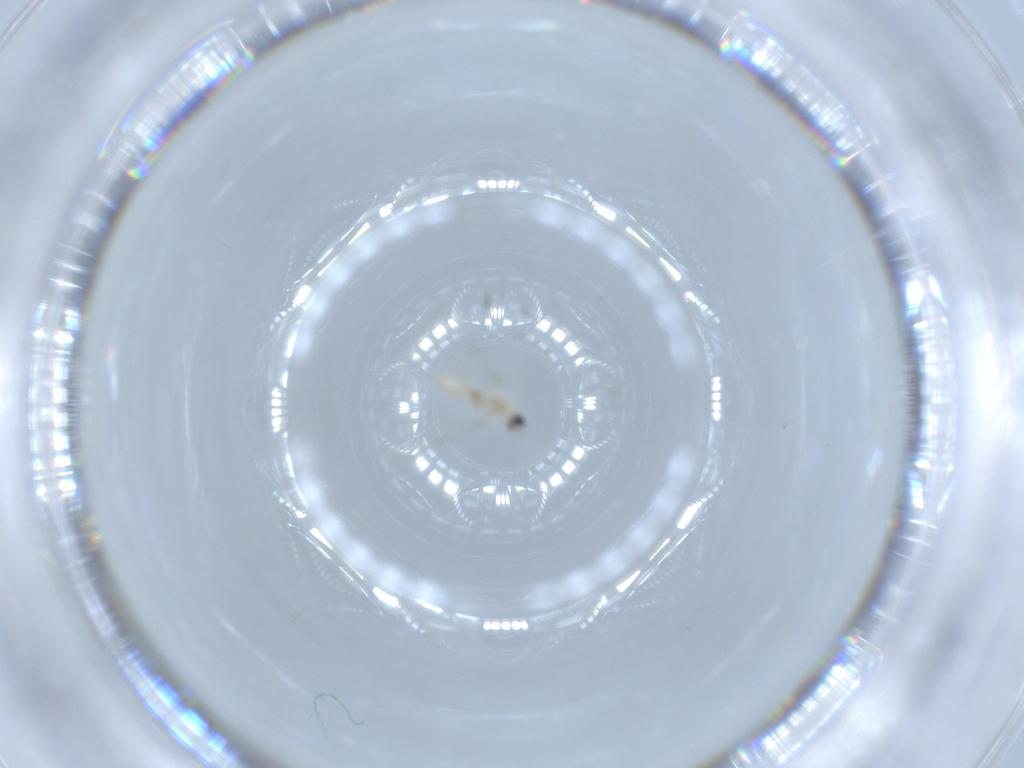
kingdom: Animalia
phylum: Arthropoda
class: Insecta
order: Diptera
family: Cecidomyiidae
